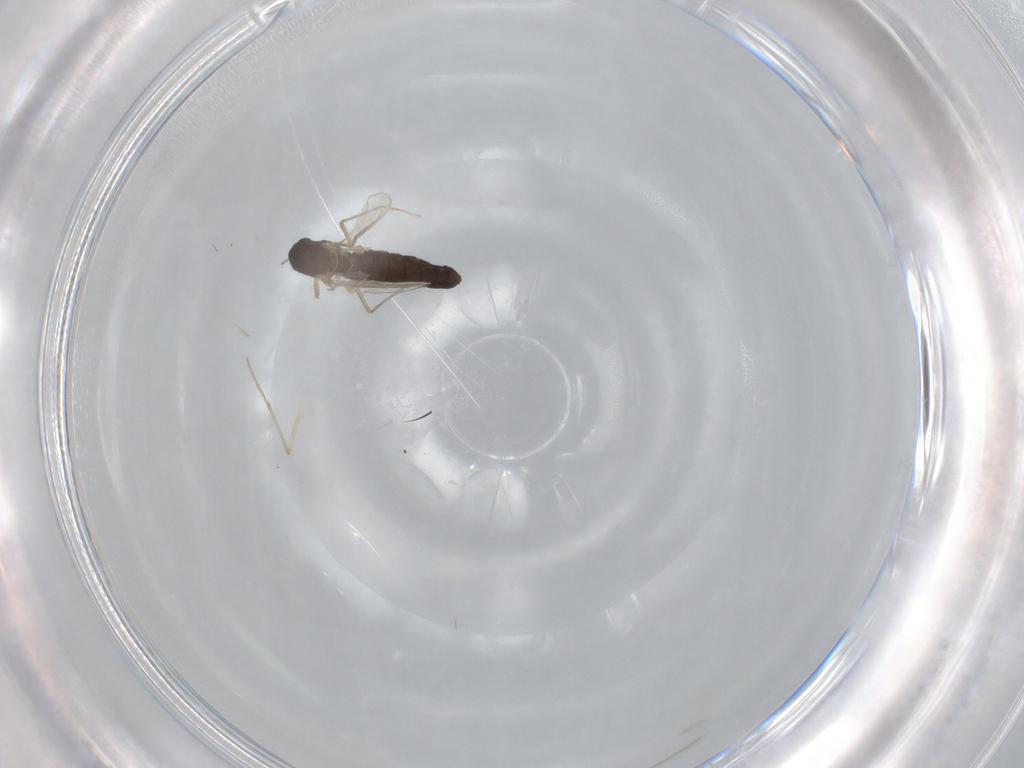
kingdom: Animalia
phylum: Arthropoda
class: Insecta
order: Diptera
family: Chironomidae
